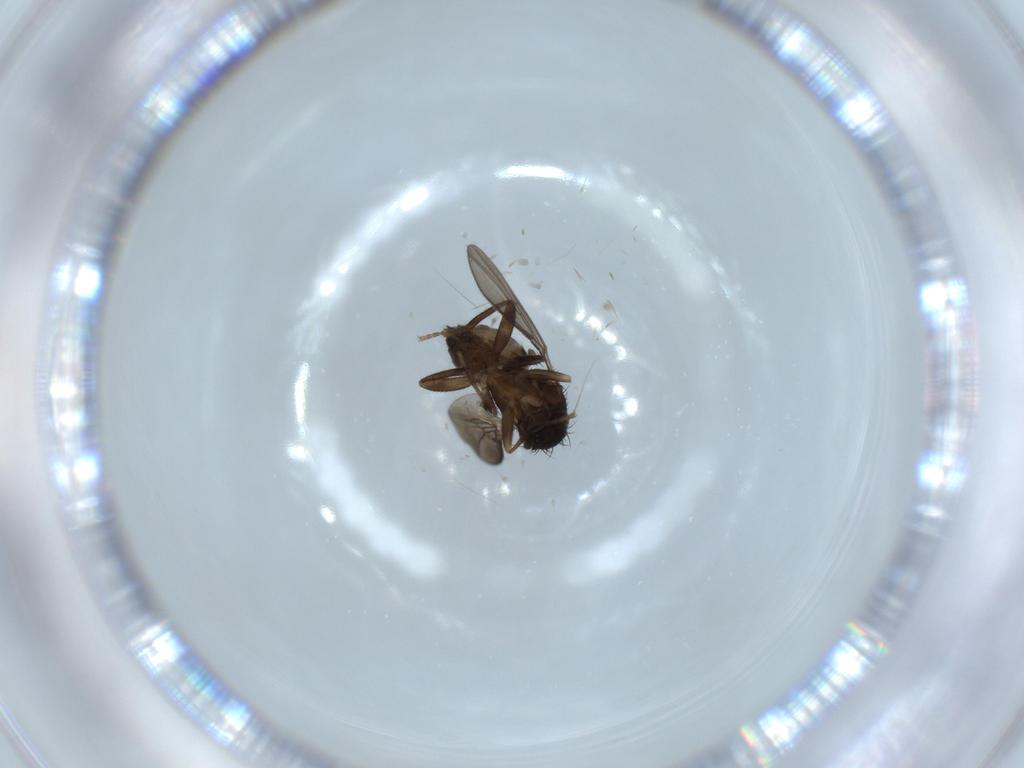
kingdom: Animalia
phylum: Arthropoda
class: Insecta
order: Diptera
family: Sphaeroceridae
